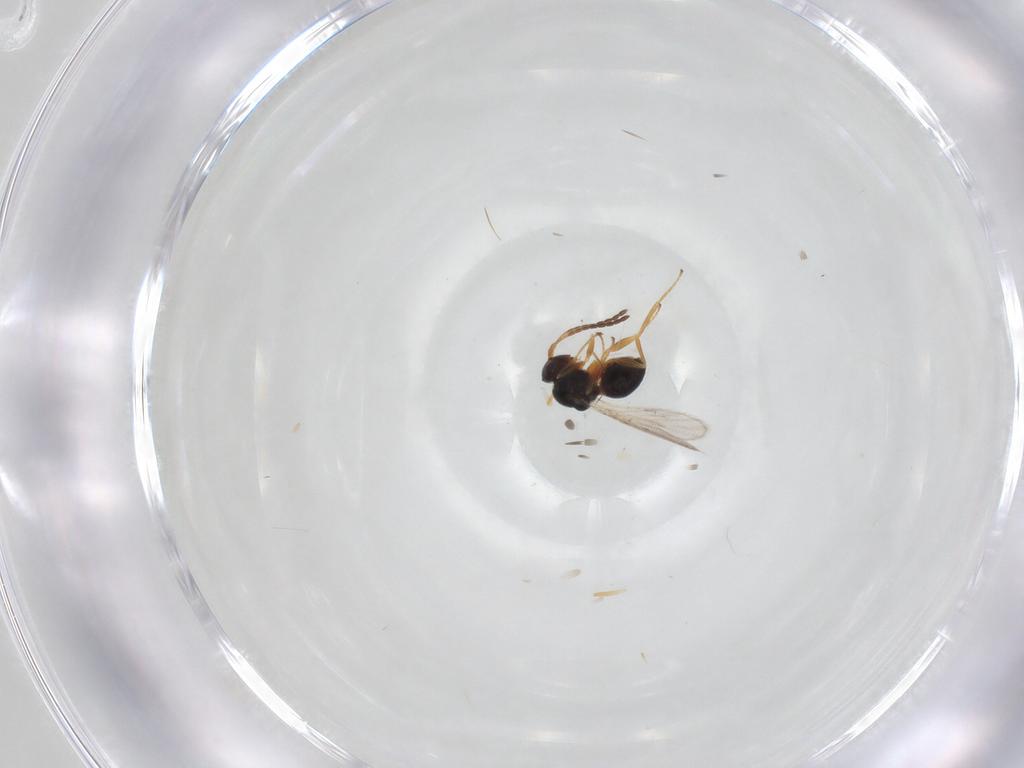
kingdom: Animalia
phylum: Arthropoda
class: Insecta
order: Hymenoptera
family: Figitidae
